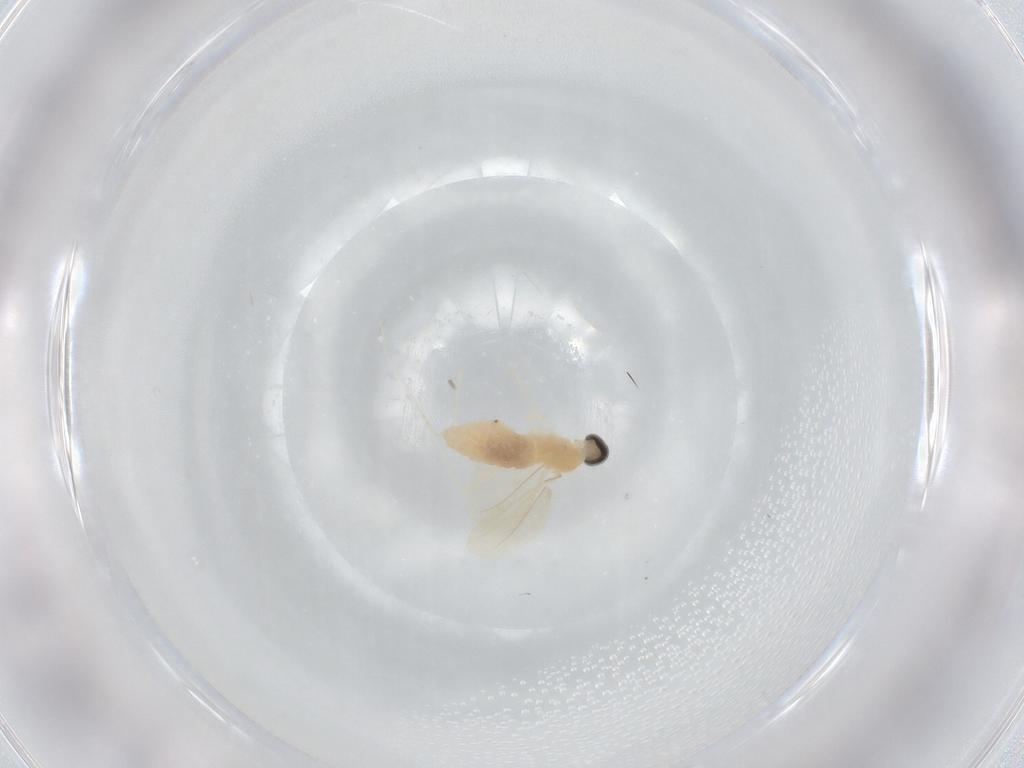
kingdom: Animalia
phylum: Arthropoda
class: Insecta
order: Diptera
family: Cecidomyiidae
